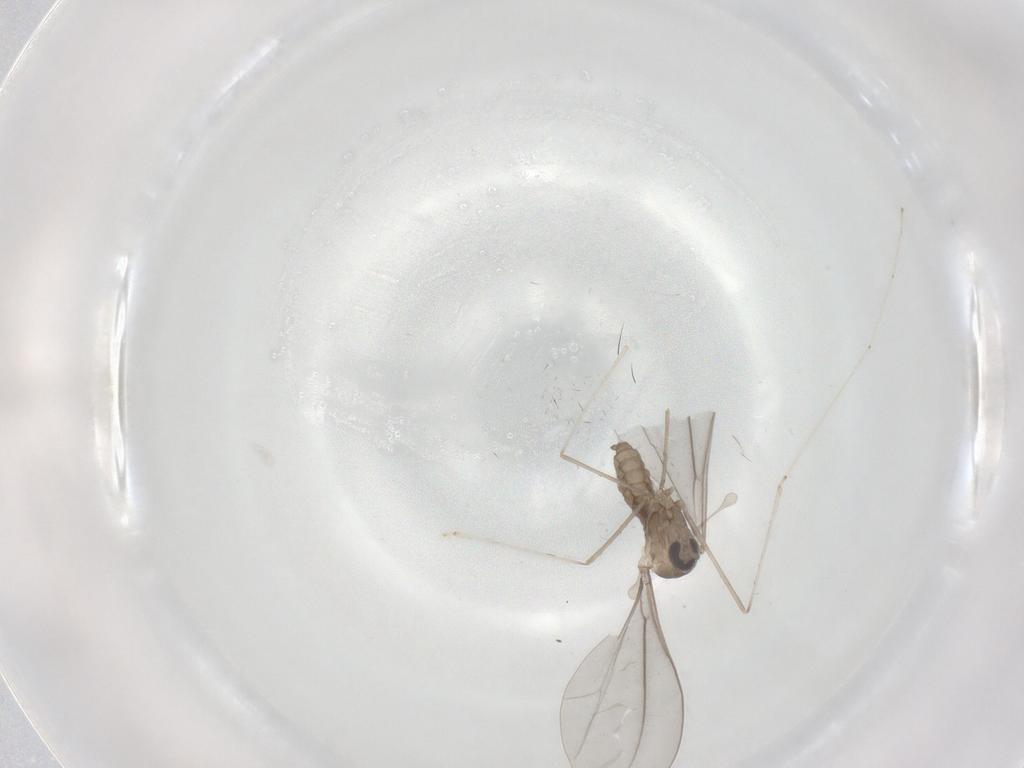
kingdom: Animalia
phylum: Arthropoda
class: Insecta
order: Diptera
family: Cecidomyiidae
